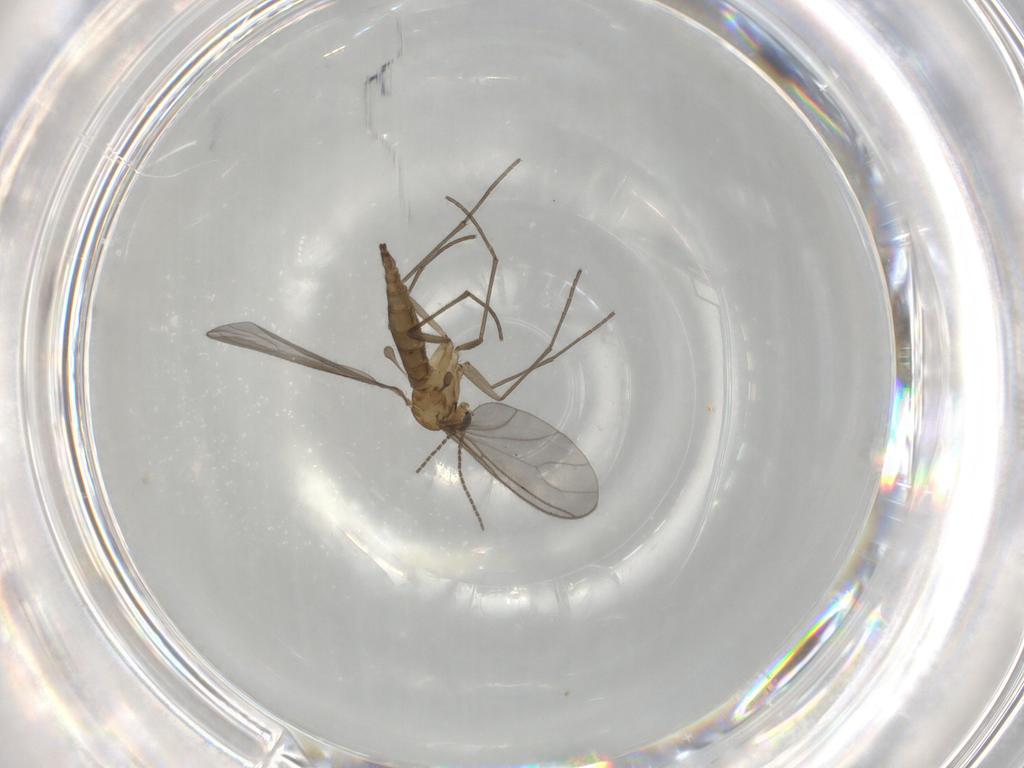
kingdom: Animalia
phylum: Arthropoda
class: Insecta
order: Diptera
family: Sciaridae
